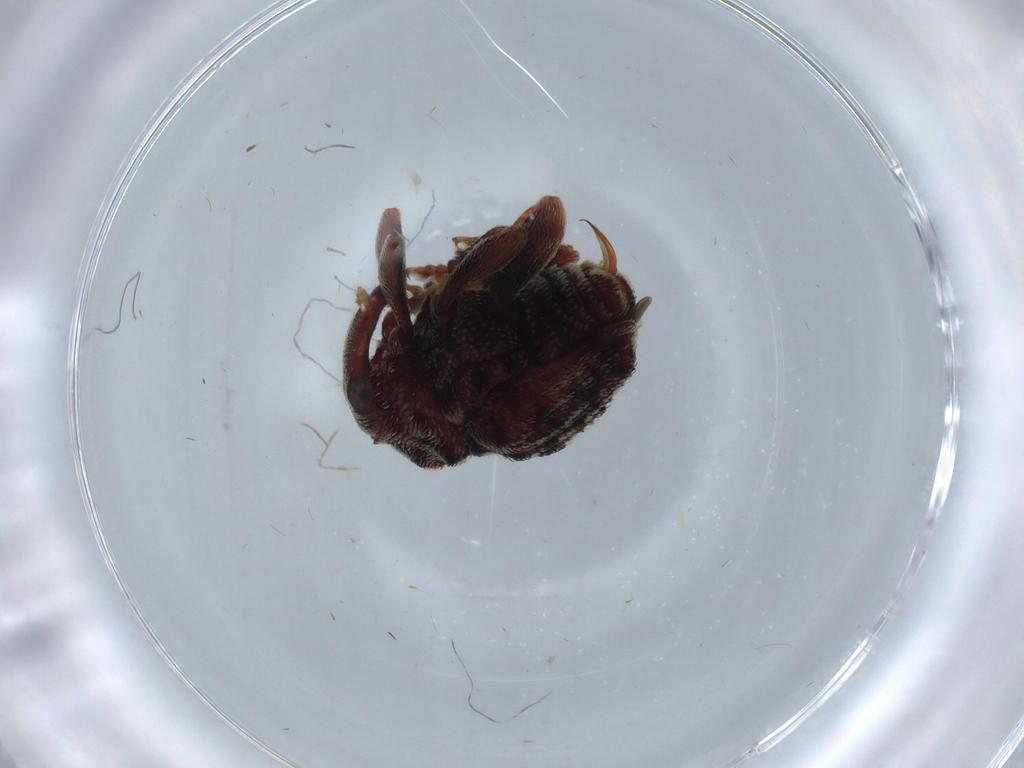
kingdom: Animalia
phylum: Arthropoda
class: Insecta
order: Coleoptera
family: Curculionidae
